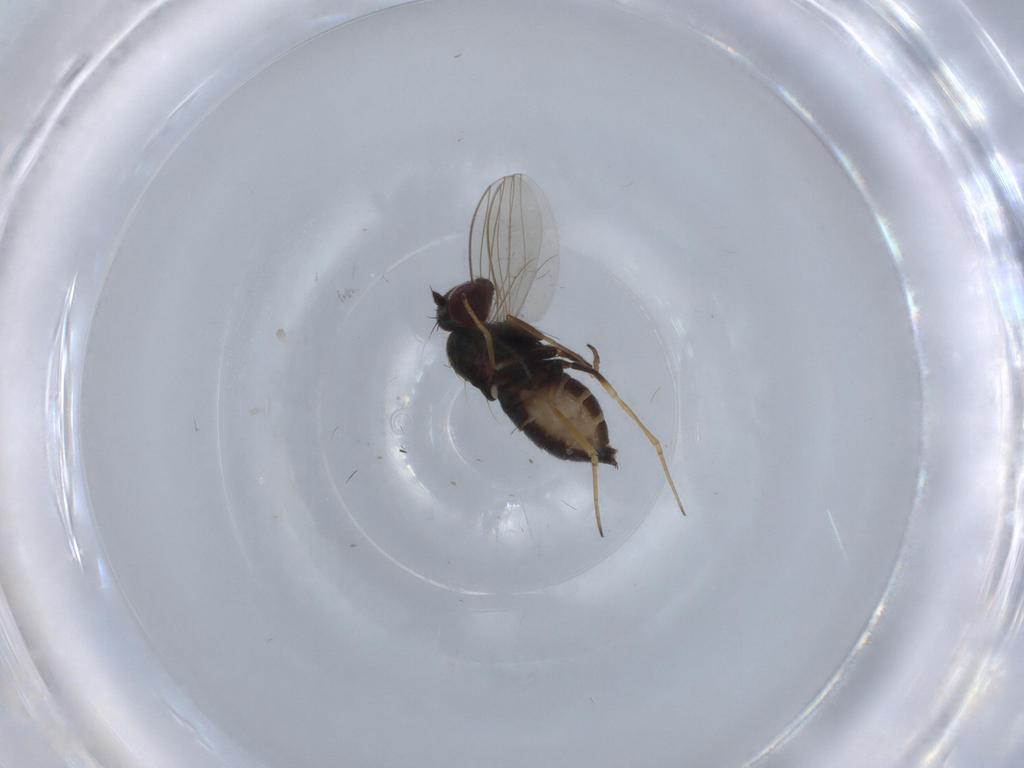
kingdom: Animalia
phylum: Arthropoda
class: Insecta
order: Diptera
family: Dolichopodidae
